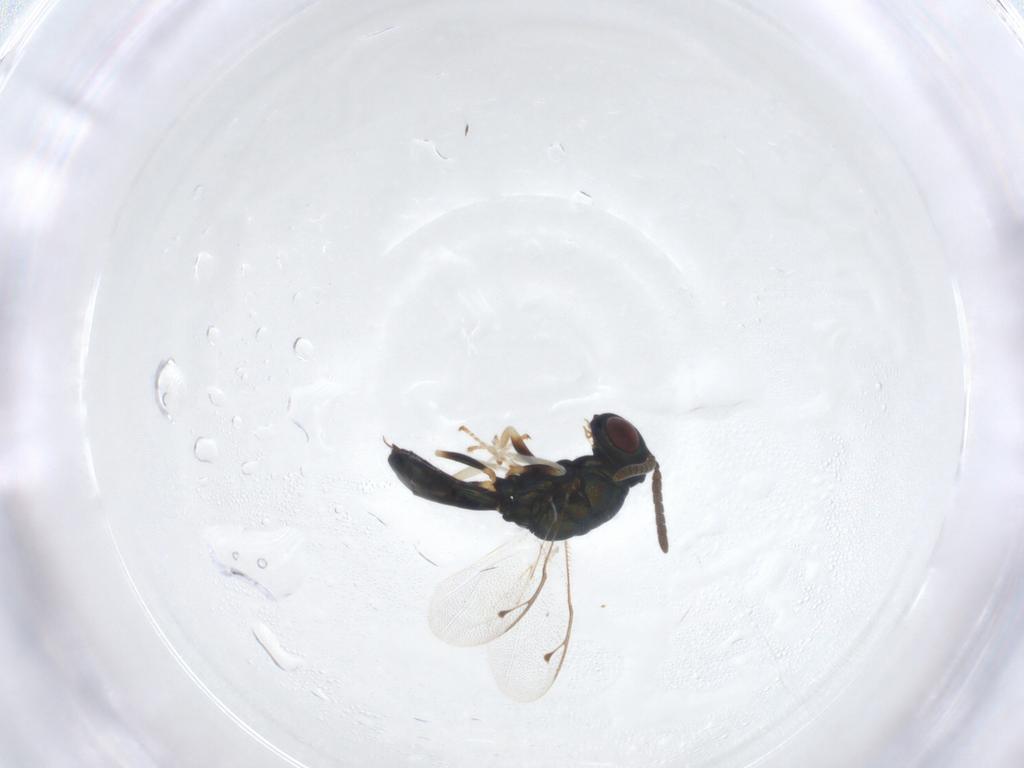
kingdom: Animalia
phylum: Arthropoda
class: Insecta
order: Hymenoptera
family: Pteromalidae
